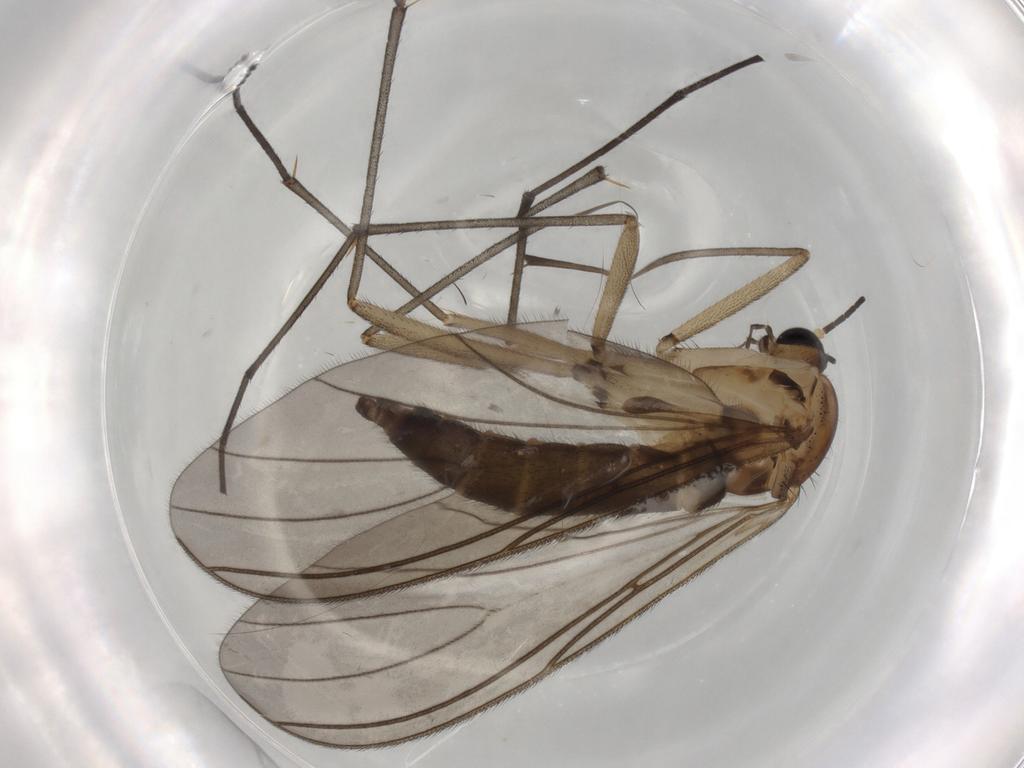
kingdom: Animalia
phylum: Arthropoda
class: Insecta
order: Diptera
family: Sciaridae
